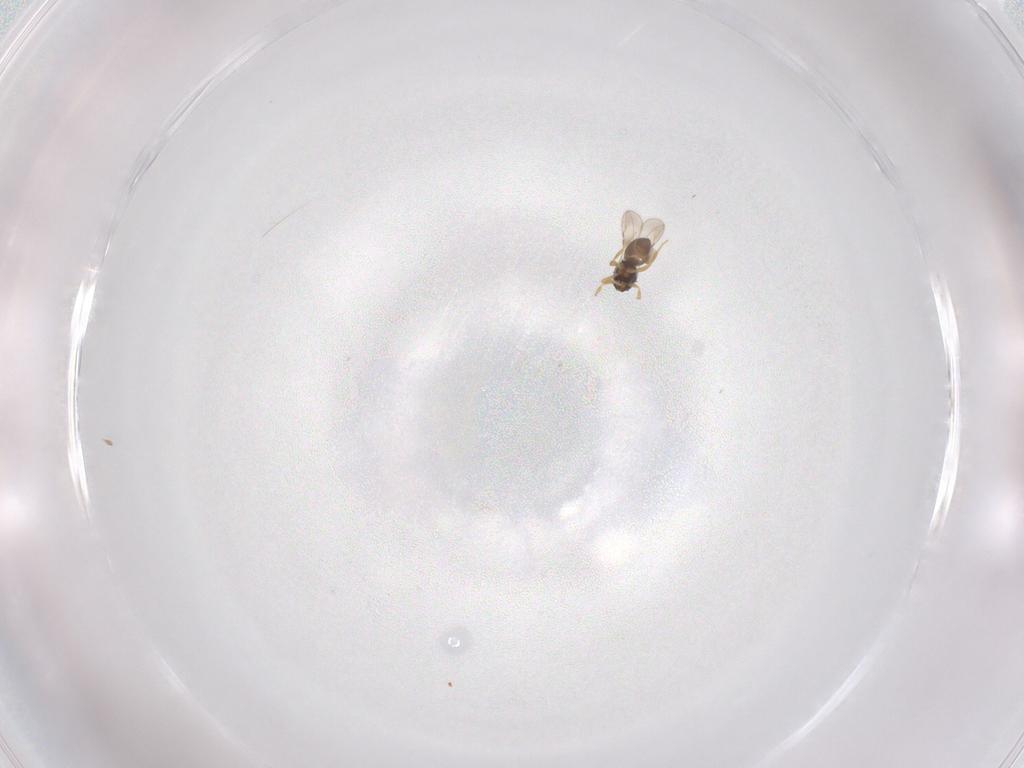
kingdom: Animalia
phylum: Arthropoda
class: Insecta
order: Hymenoptera
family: Ceraphronidae
